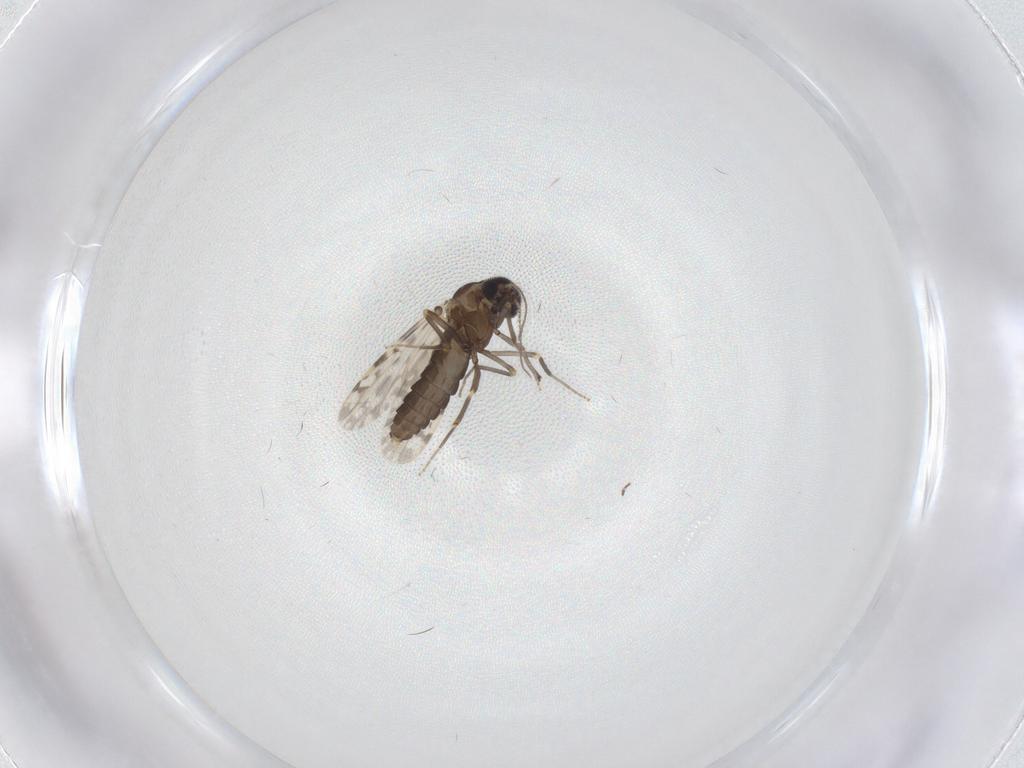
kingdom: Animalia
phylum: Arthropoda
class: Insecta
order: Diptera
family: Ceratopogonidae
